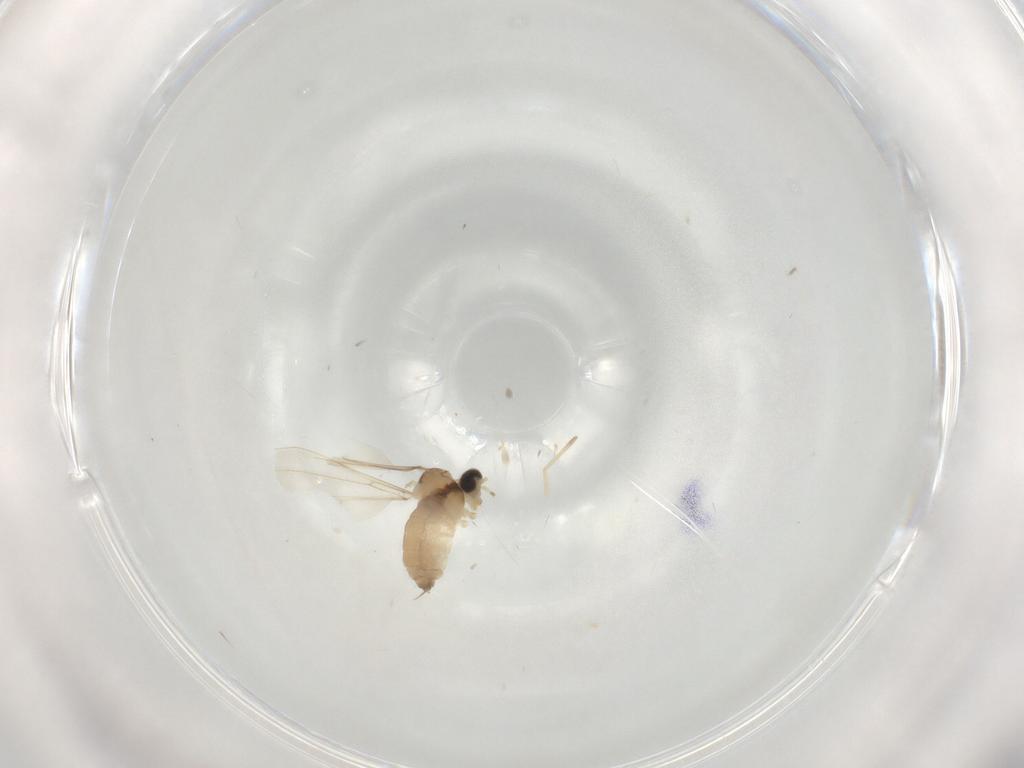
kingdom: Animalia
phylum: Arthropoda
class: Insecta
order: Diptera
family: Cecidomyiidae
